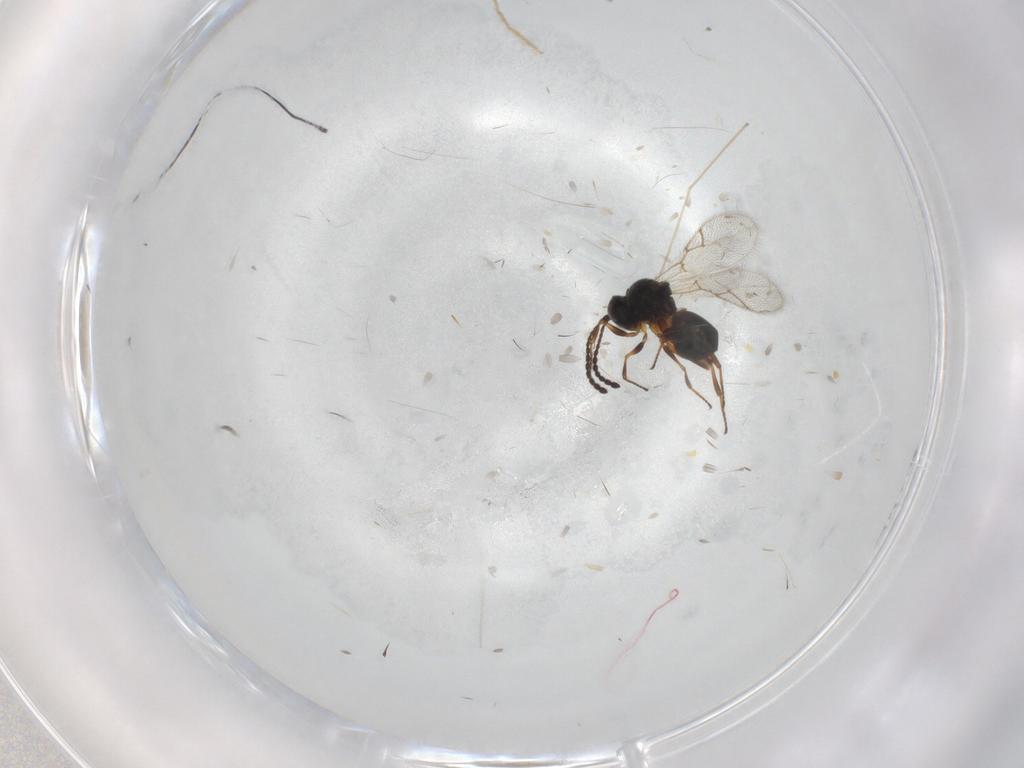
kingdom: Animalia
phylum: Arthropoda
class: Insecta
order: Hymenoptera
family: Figitidae
